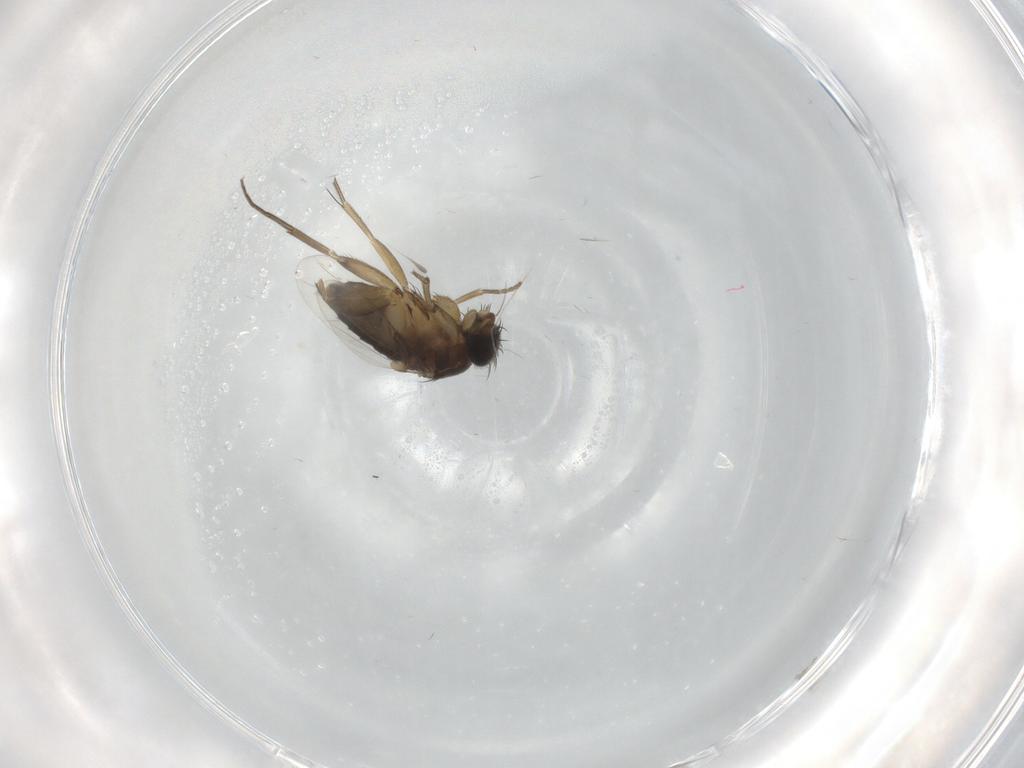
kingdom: Animalia
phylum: Arthropoda
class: Insecta
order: Diptera
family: Phoridae
